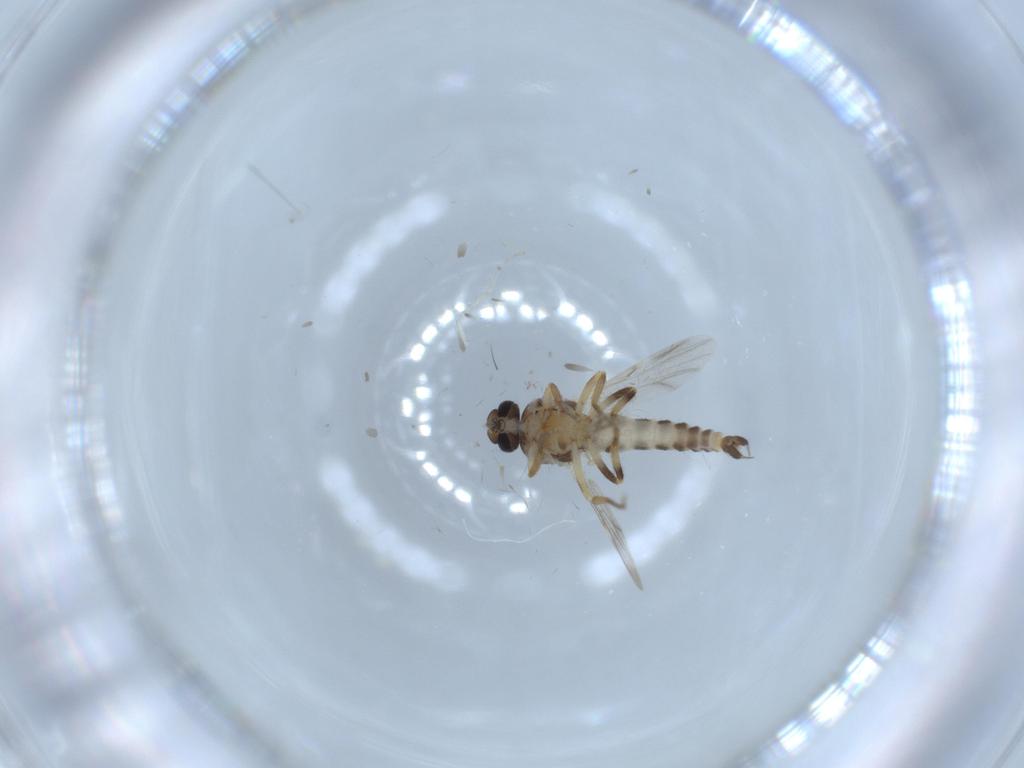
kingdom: Animalia
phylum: Arthropoda
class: Insecta
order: Diptera
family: Ceratopogonidae
